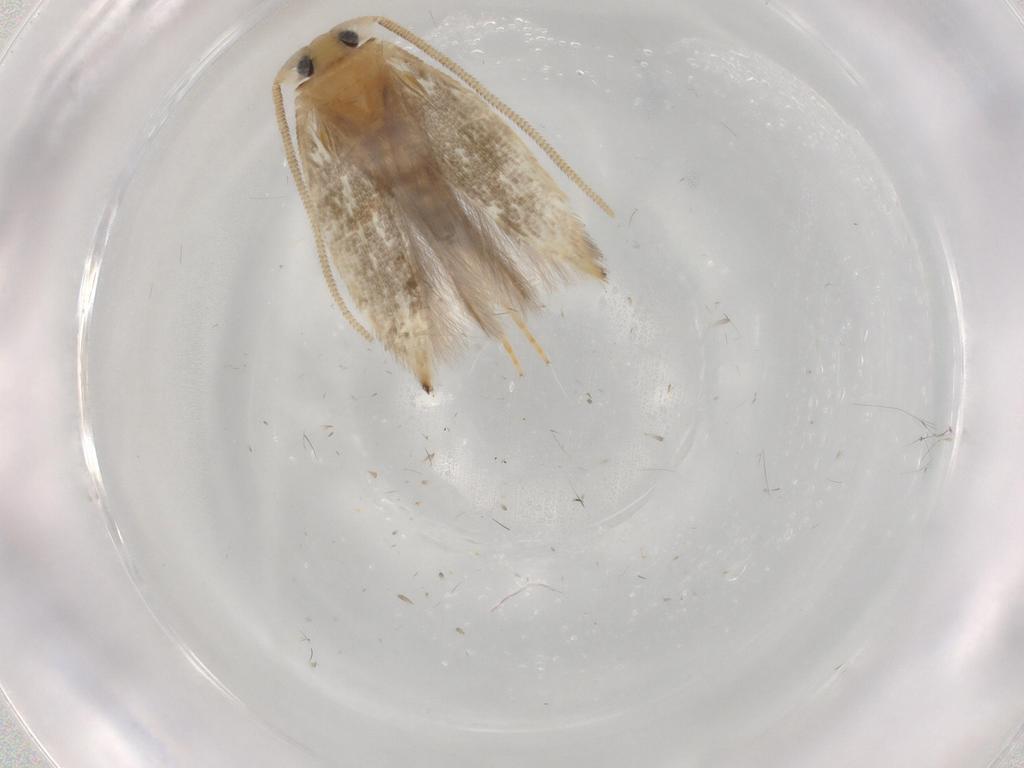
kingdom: Animalia
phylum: Arthropoda
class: Insecta
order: Lepidoptera
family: Opostegidae
